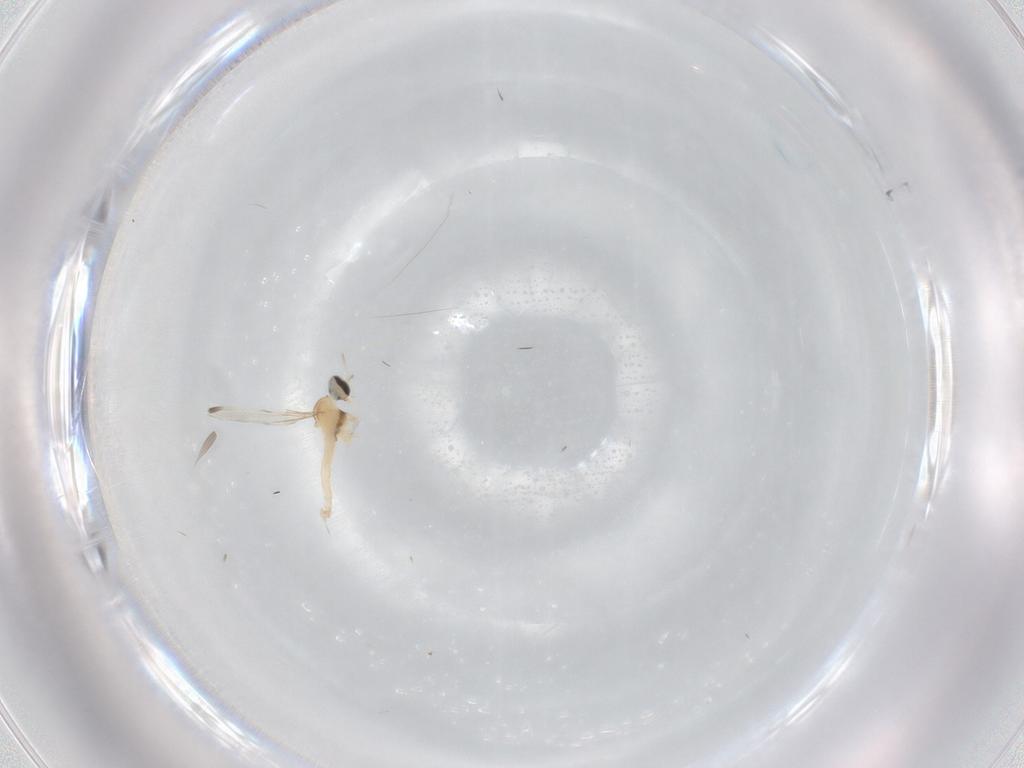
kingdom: Animalia
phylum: Arthropoda
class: Insecta
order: Diptera
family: Cecidomyiidae
